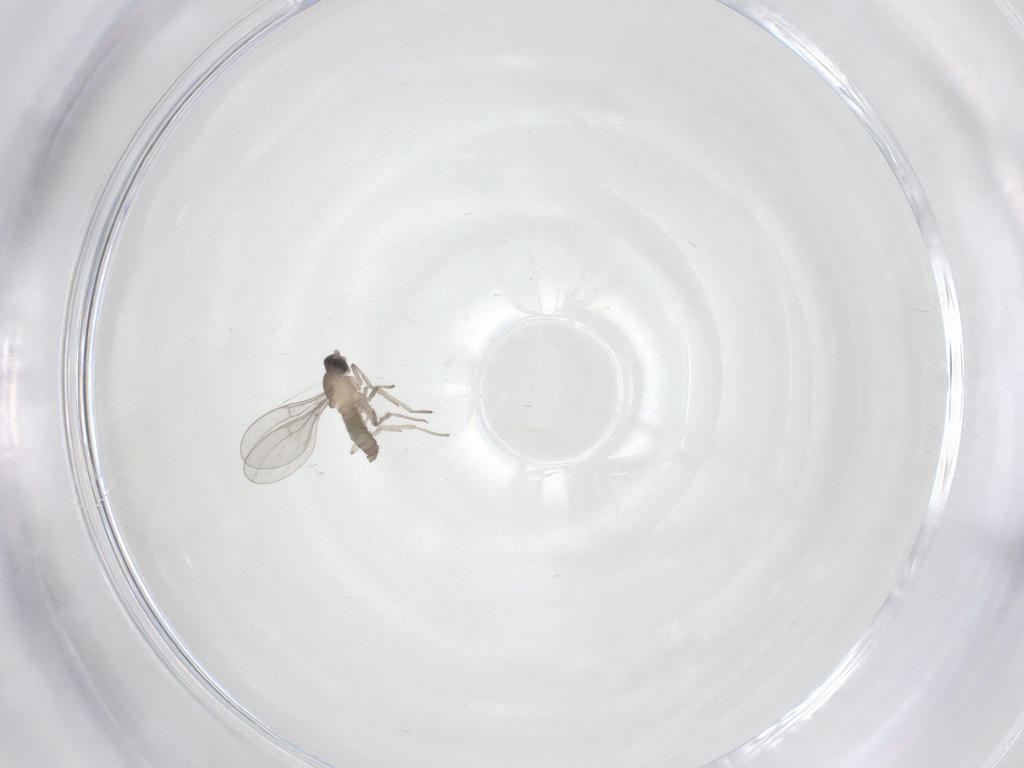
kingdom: Animalia
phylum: Arthropoda
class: Insecta
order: Diptera
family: Cecidomyiidae
